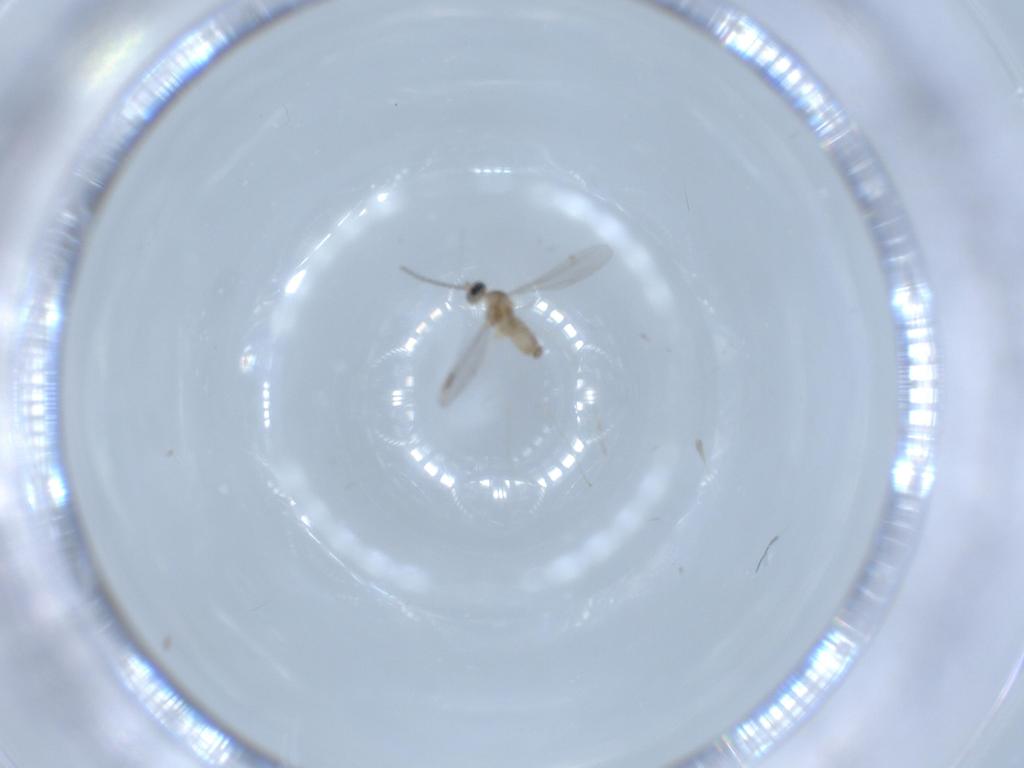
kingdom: Animalia
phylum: Arthropoda
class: Insecta
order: Diptera
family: Cecidomyiidae
